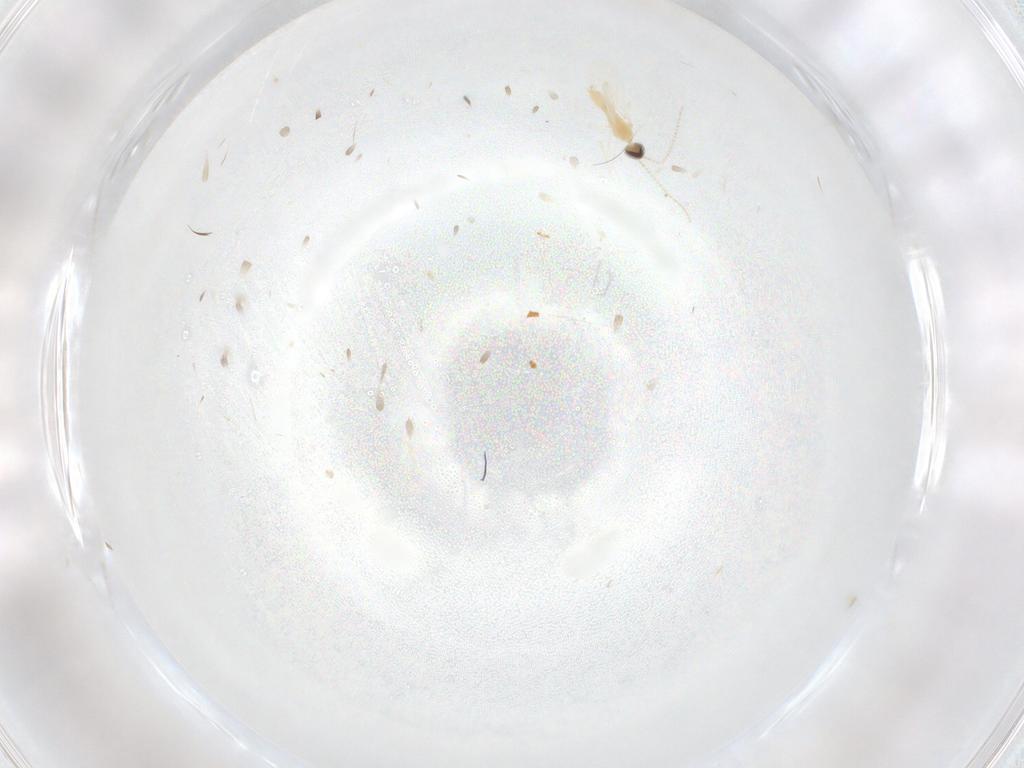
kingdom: Animalia
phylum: Arthropoda
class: Insecta
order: Diptera
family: Cecidomyiidae
